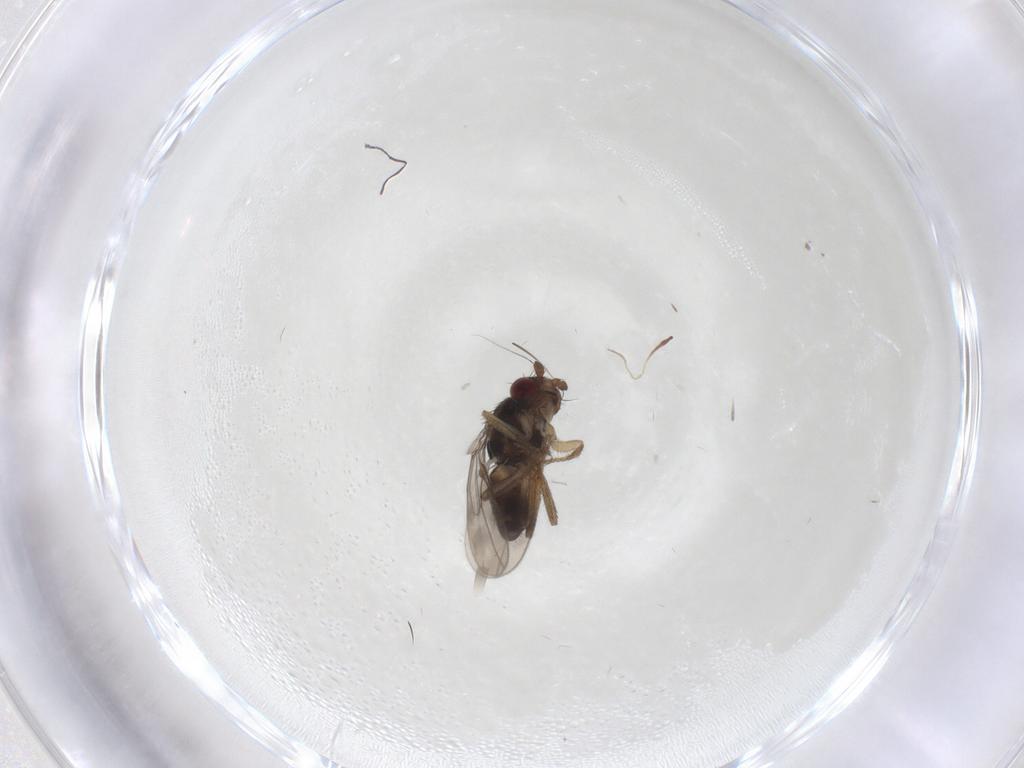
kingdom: Animalia
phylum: Arthropoda
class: Insecta
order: Diptera
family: Sphaeroceridae
